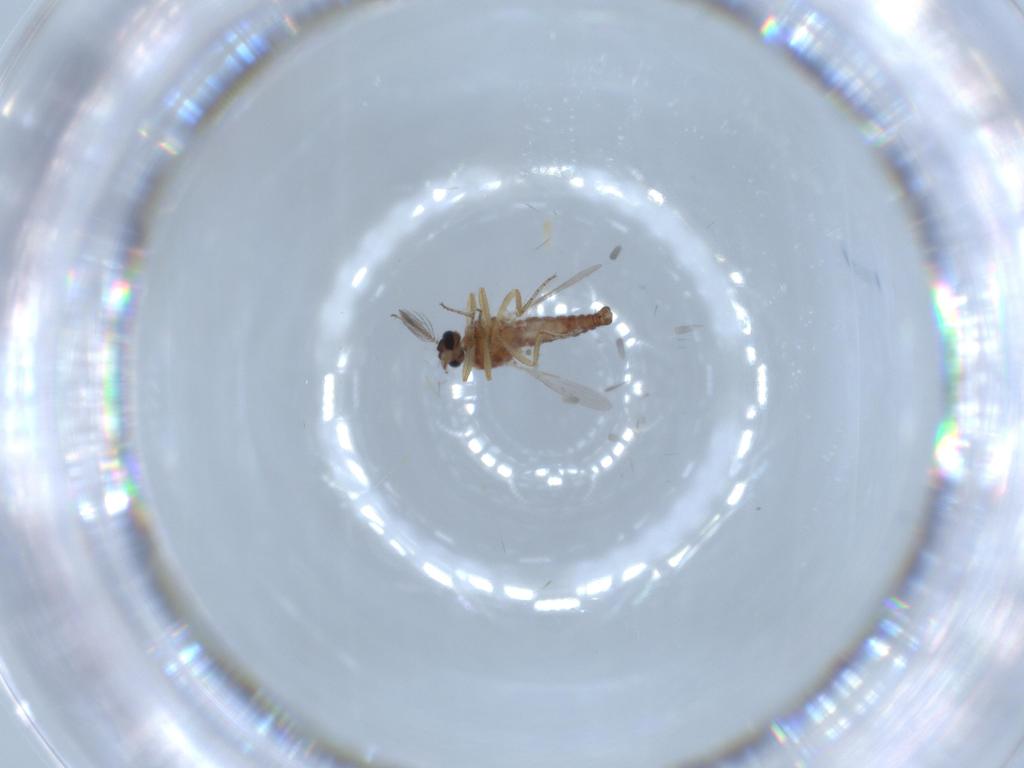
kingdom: Animalia
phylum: Arthropoda
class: Insecta
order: Diptera
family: Ceratopogonidae
